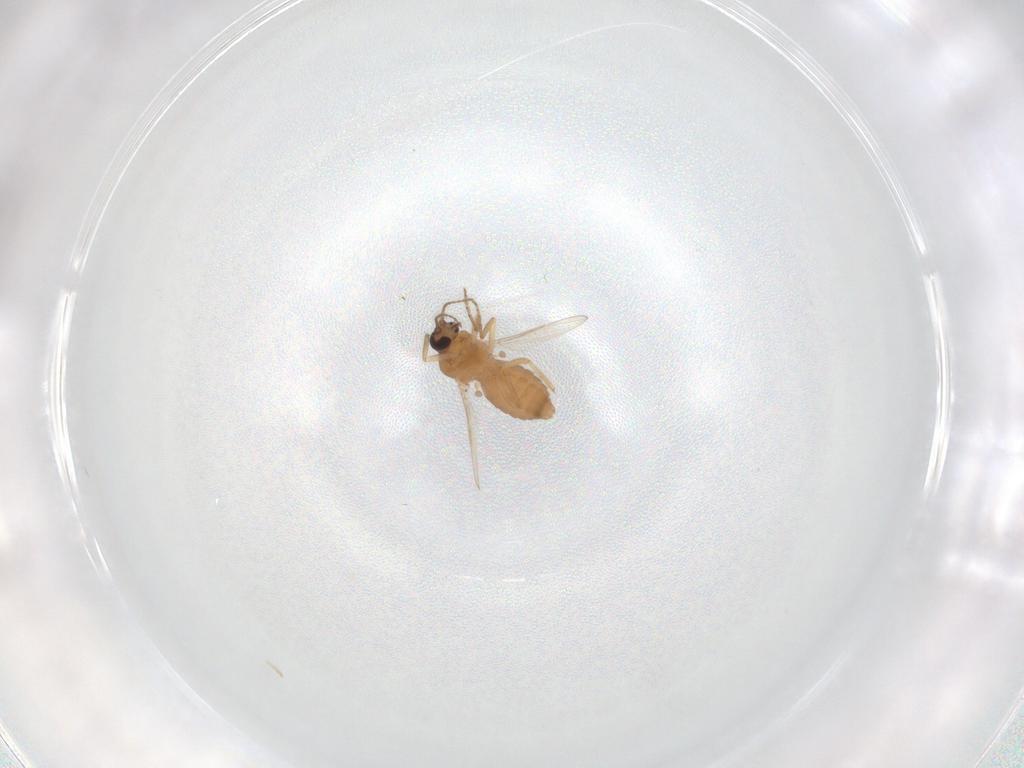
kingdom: Animalia
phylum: Arthropoda
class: Insecta
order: Diptera
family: Ceratopogonidae
